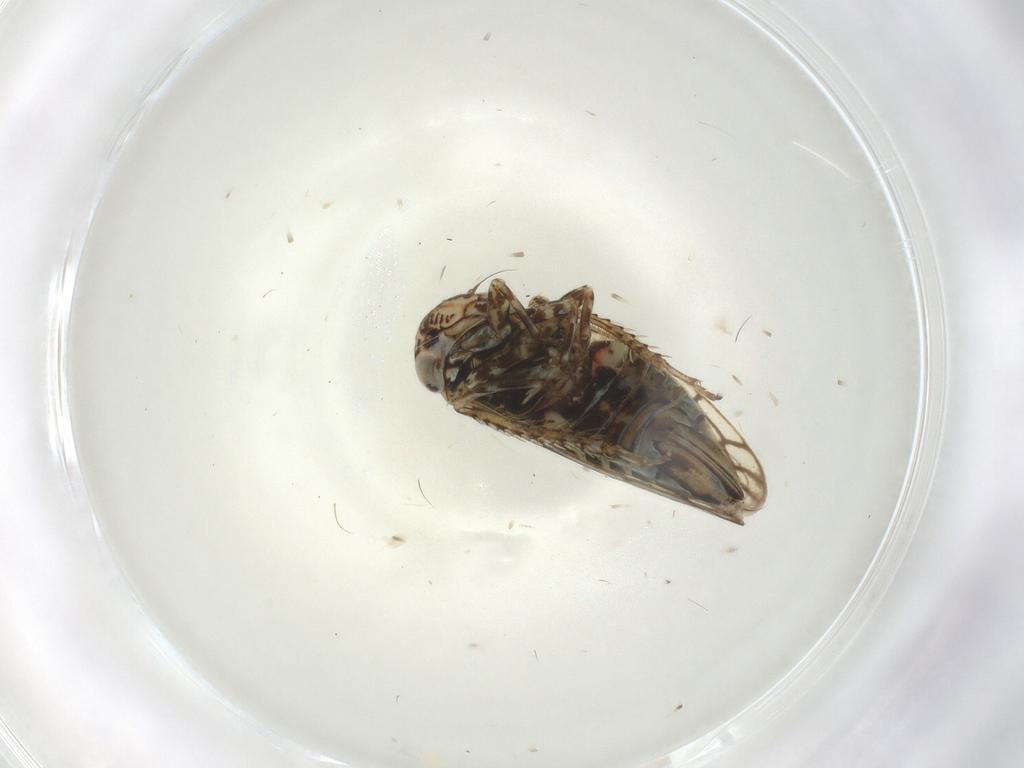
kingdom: Animalia
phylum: Arthropoda
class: Insecta
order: Hemiptera
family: Cicadellidae
